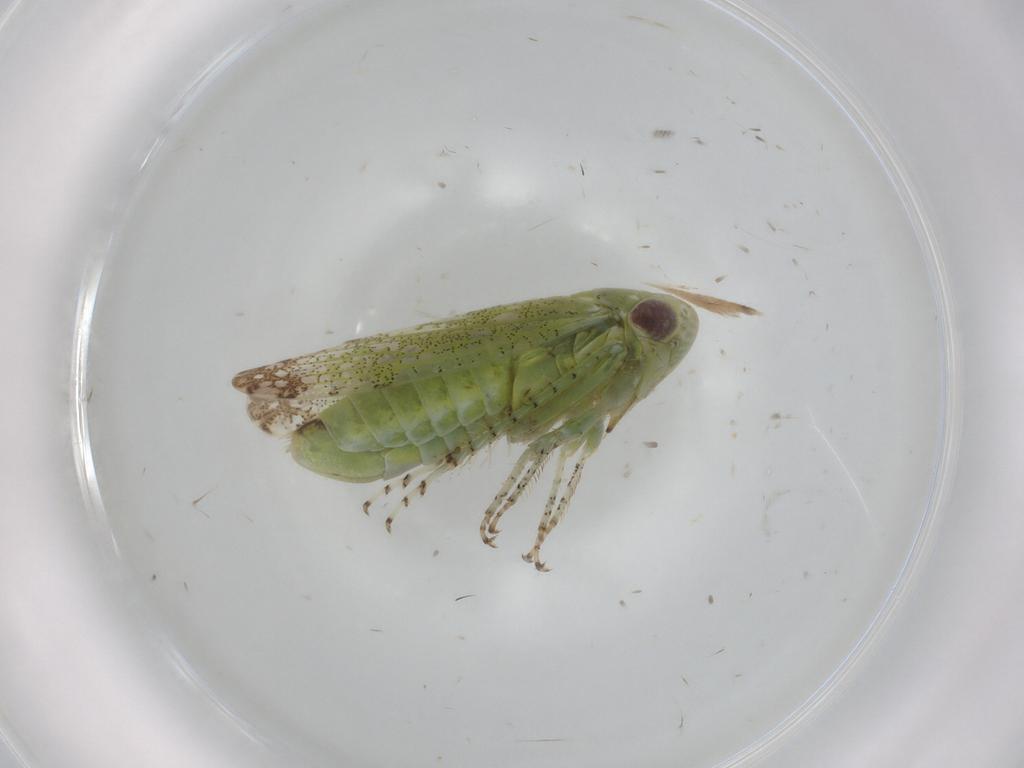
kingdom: Animalia
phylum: Arthropoda
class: Insecta
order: Hemiptera
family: Cicadellidae
